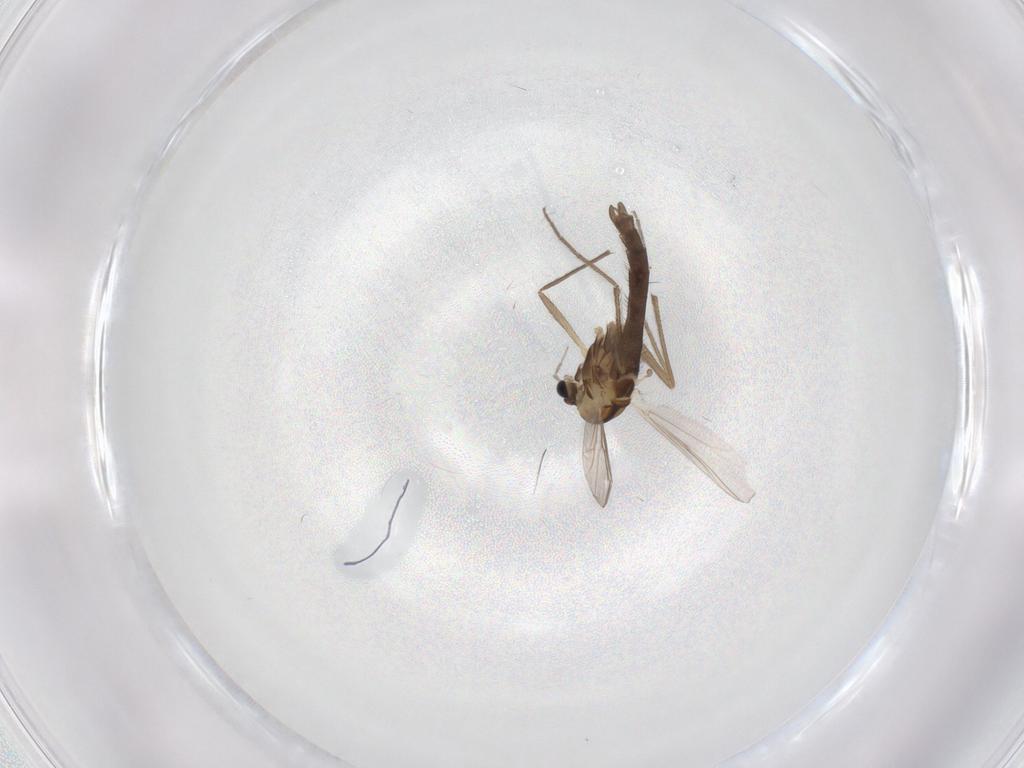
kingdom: Animalia
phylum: Arthropoda
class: Insecta
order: Diptera
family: Chironomidae
